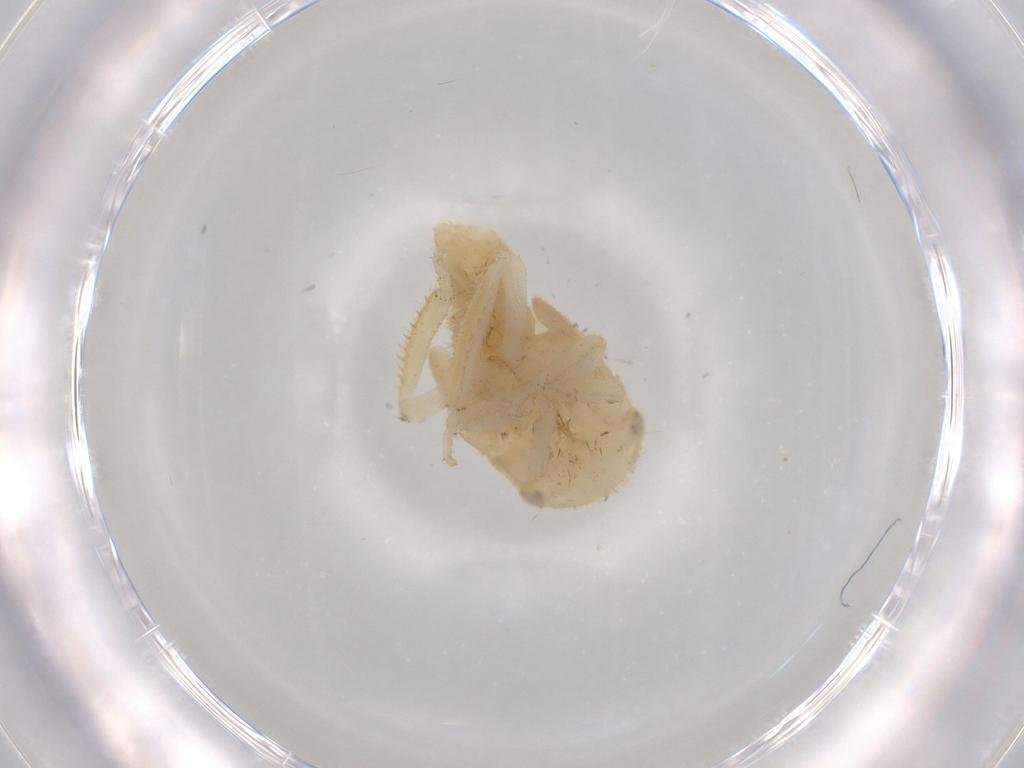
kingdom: Animalia
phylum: Arthropoda
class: Insecta
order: Hemiptera
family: Cicadellidae
